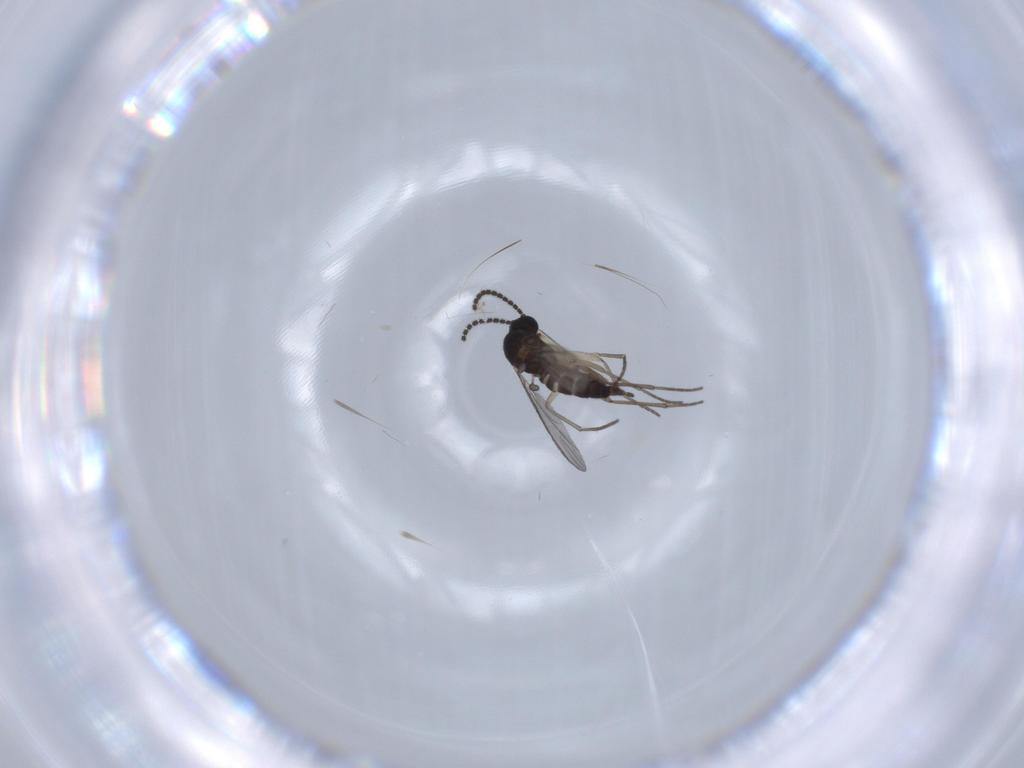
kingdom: Animalia
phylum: Arthropoda
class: Insecta
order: Diptera
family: Sciaridae
